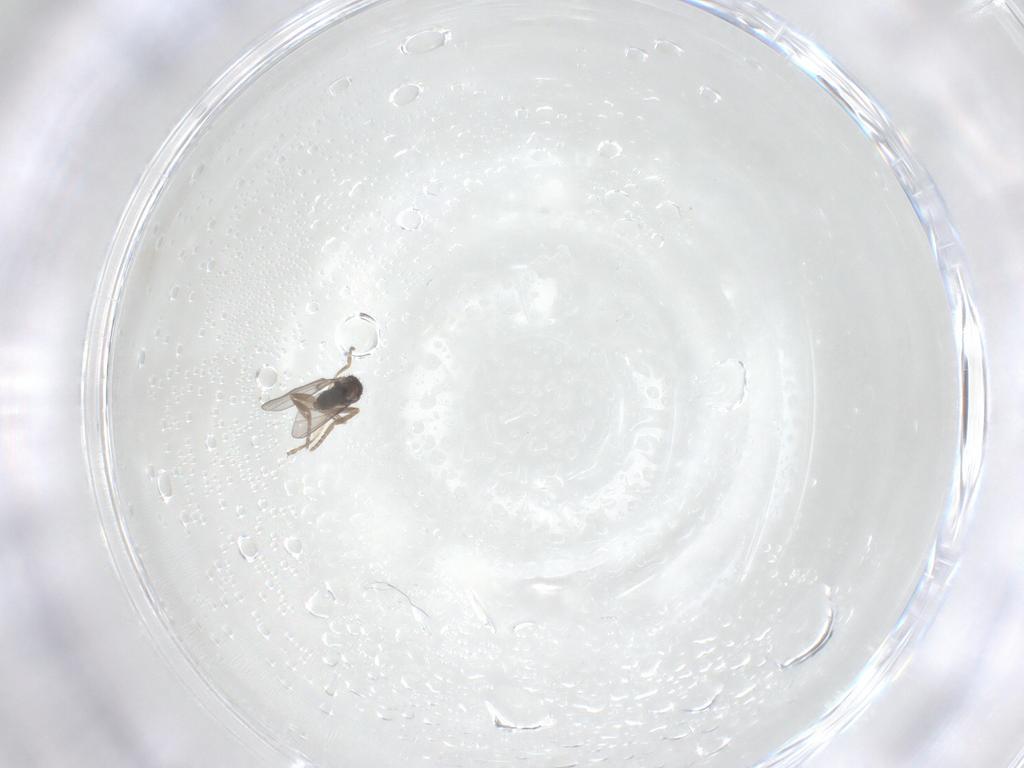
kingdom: Animalia
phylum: Arthropoda
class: Insecta
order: Diptera
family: Phoridae
